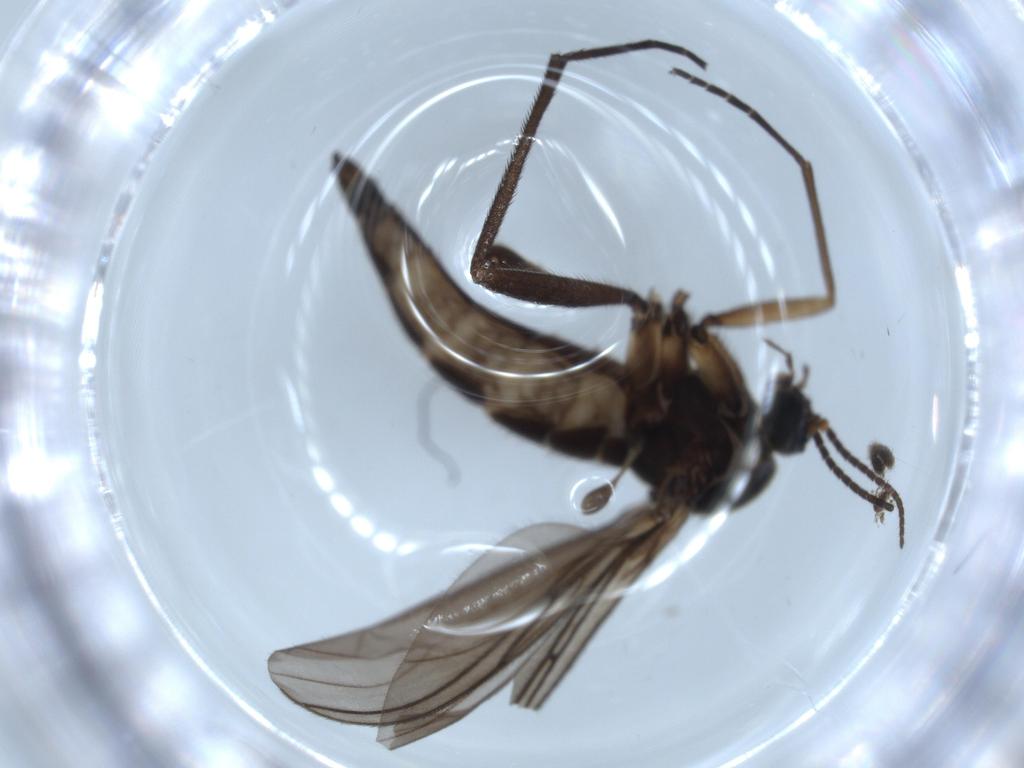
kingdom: Animalia
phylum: Arthropoda
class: Insecta
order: Diptera
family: Sciaridae
